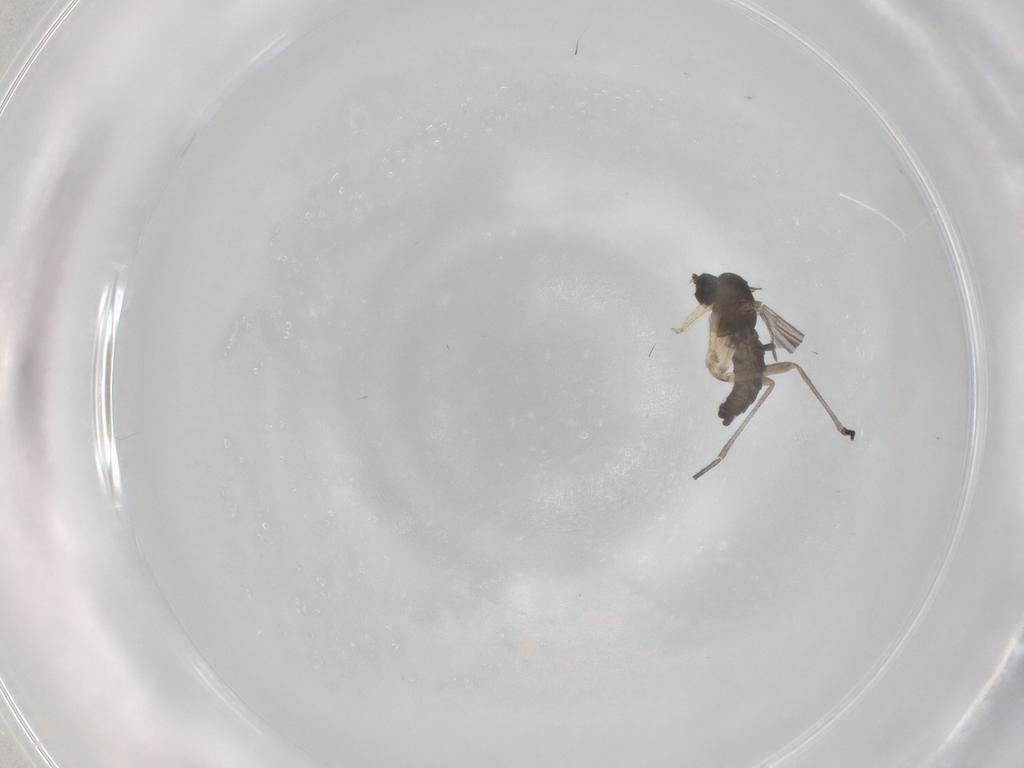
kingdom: Animalia
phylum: Arthropoda
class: Insecta
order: Diptera
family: Sciaridae
